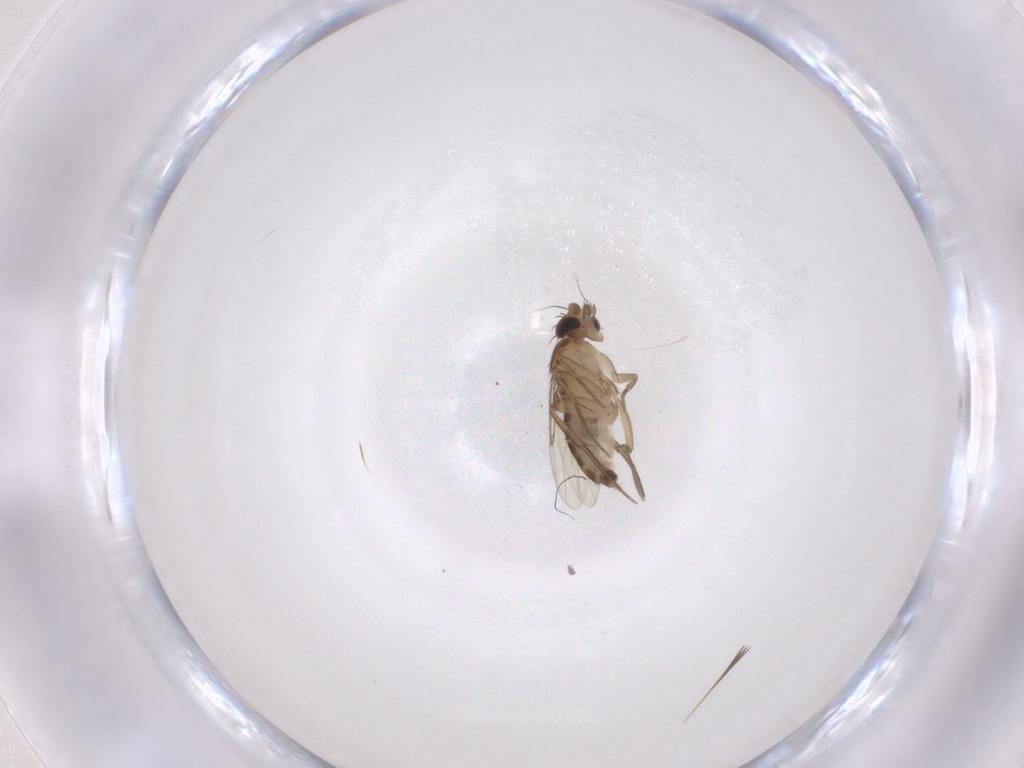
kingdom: Animalia
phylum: Arthropoda
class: Insecta
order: Diptera
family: Phoridae
